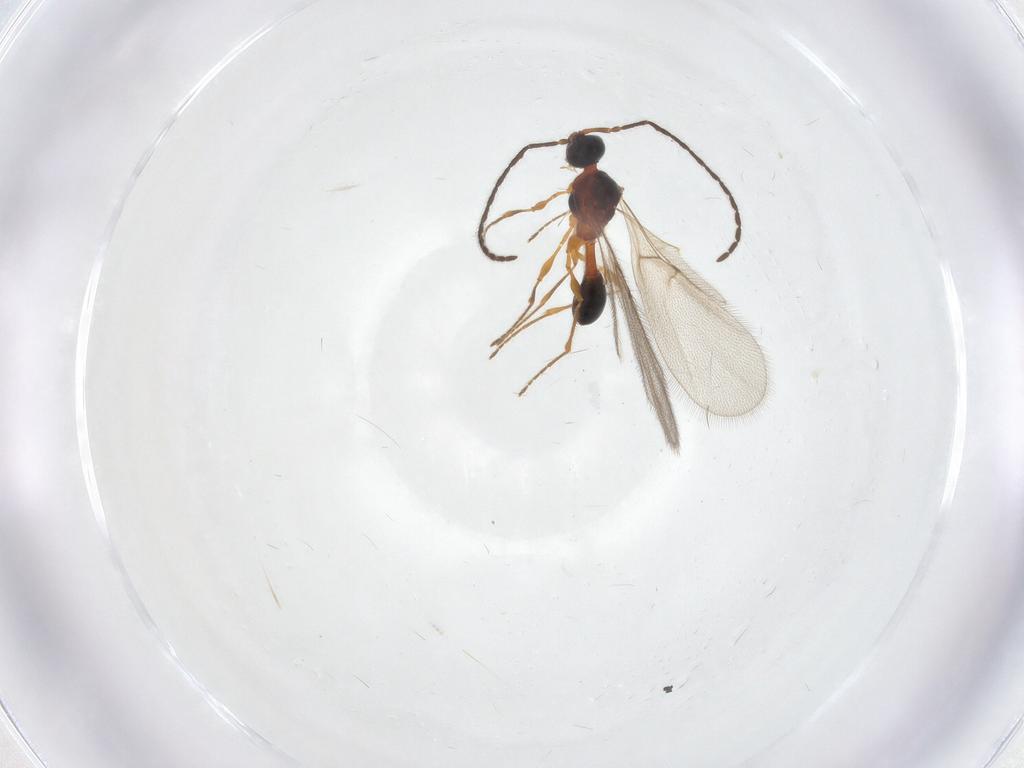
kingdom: Animalia
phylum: Arthropoda
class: Insecta
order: Hymenoptera
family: Diapriidae
